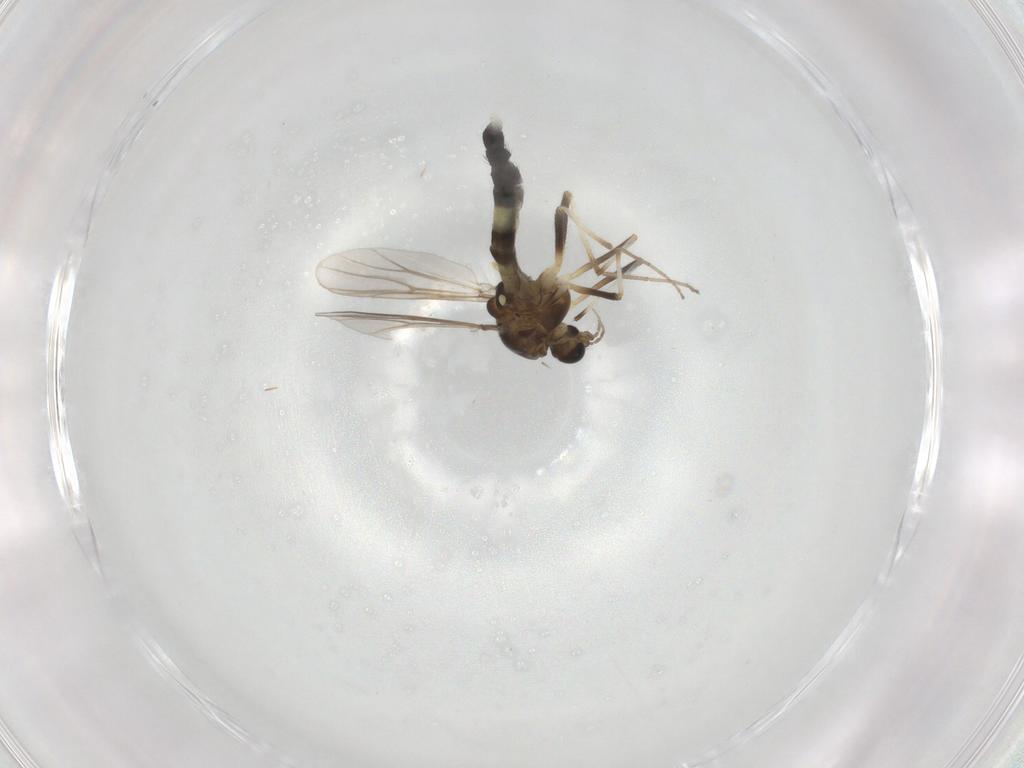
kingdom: Animalia
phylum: Arthropoda
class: Insecta
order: Diptera
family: Chironomidae
